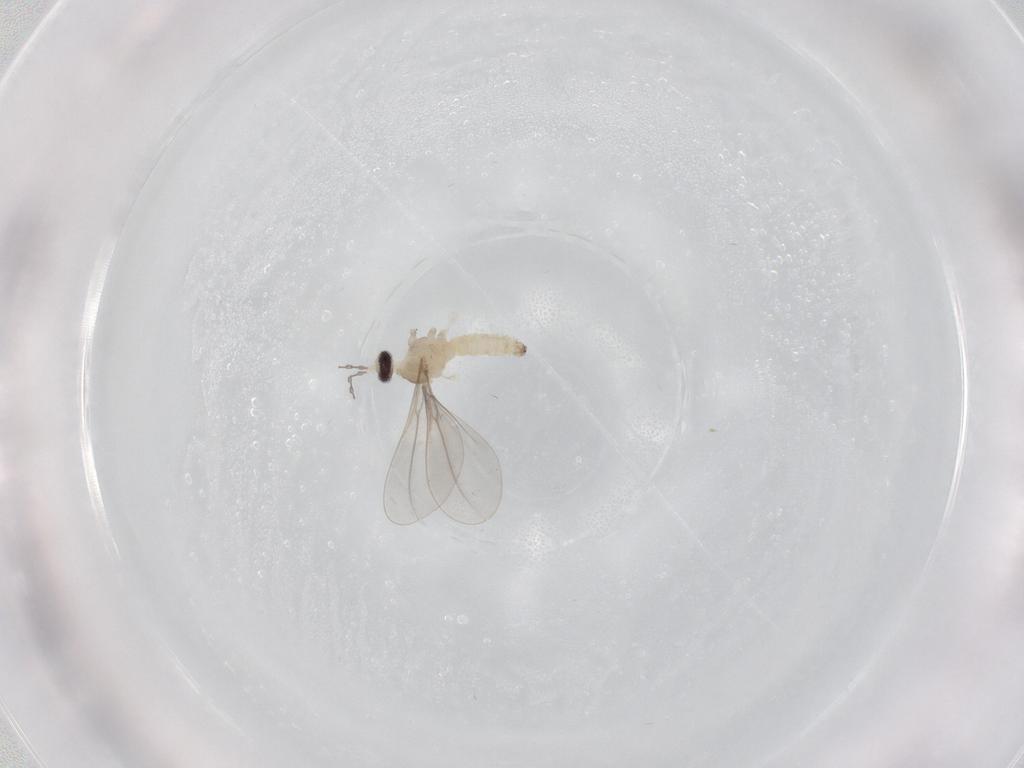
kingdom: Animalia
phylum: Arthropoda
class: Insecta
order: Diptera
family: Cecidomyiidae
